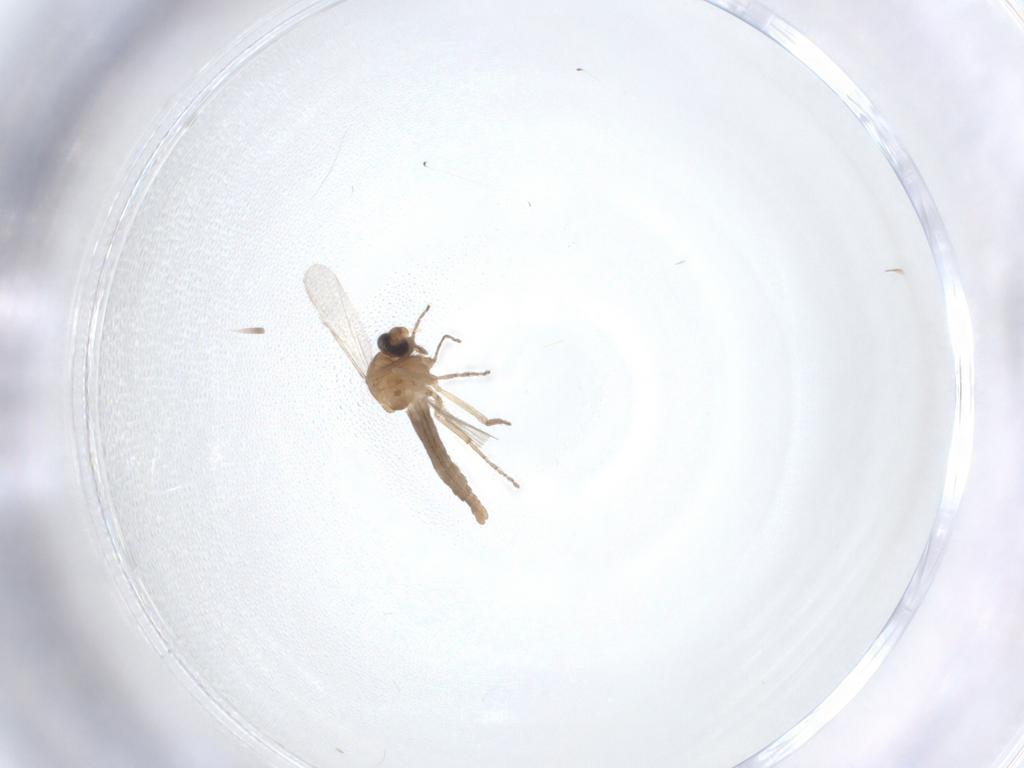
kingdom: Animalia
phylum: Arthropoda
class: Insecta
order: Diptera
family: Ceratopogonidae
